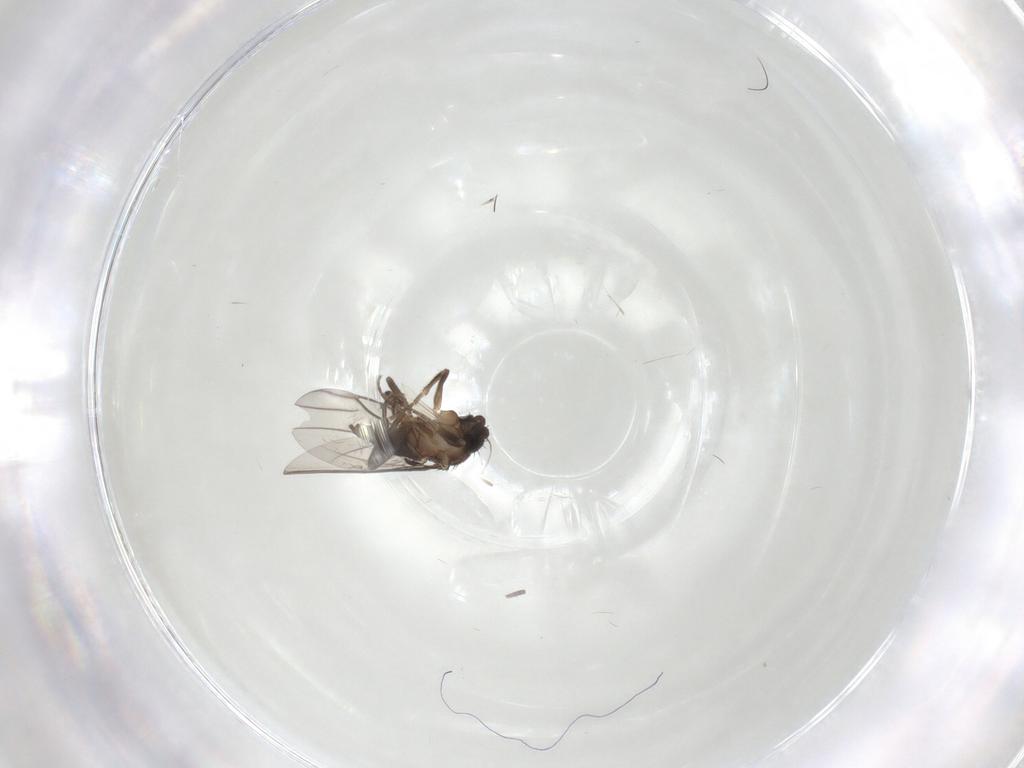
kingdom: Animalia
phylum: Arthropoda
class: Insecta
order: Diptera
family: Phoridae
